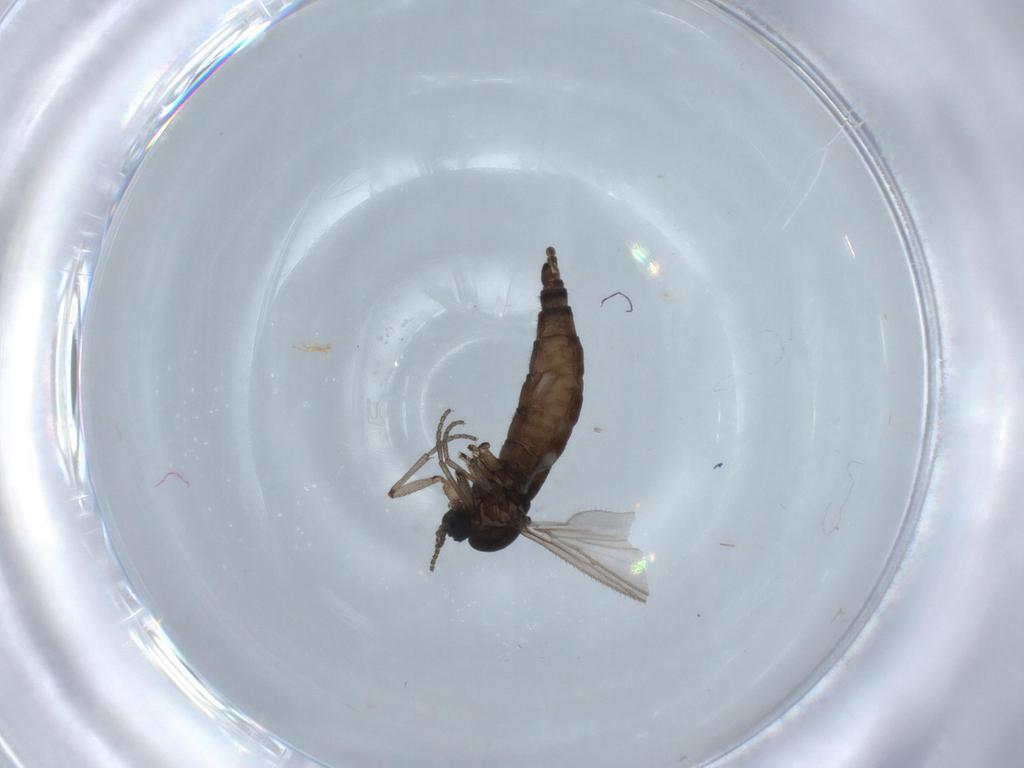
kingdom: Animalia
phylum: Arthropoda
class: Insecta
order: Diptera
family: Sciaridae
